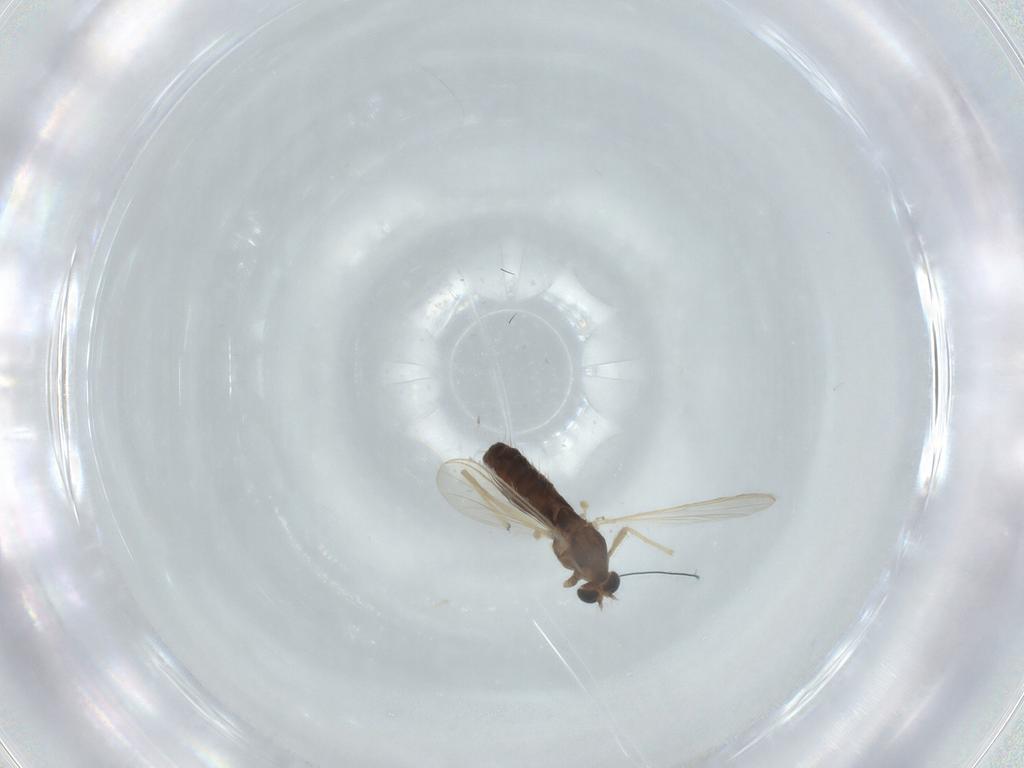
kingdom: Animalia
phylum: Arthropoda
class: Insecta
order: Diptera
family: Chironomidae
